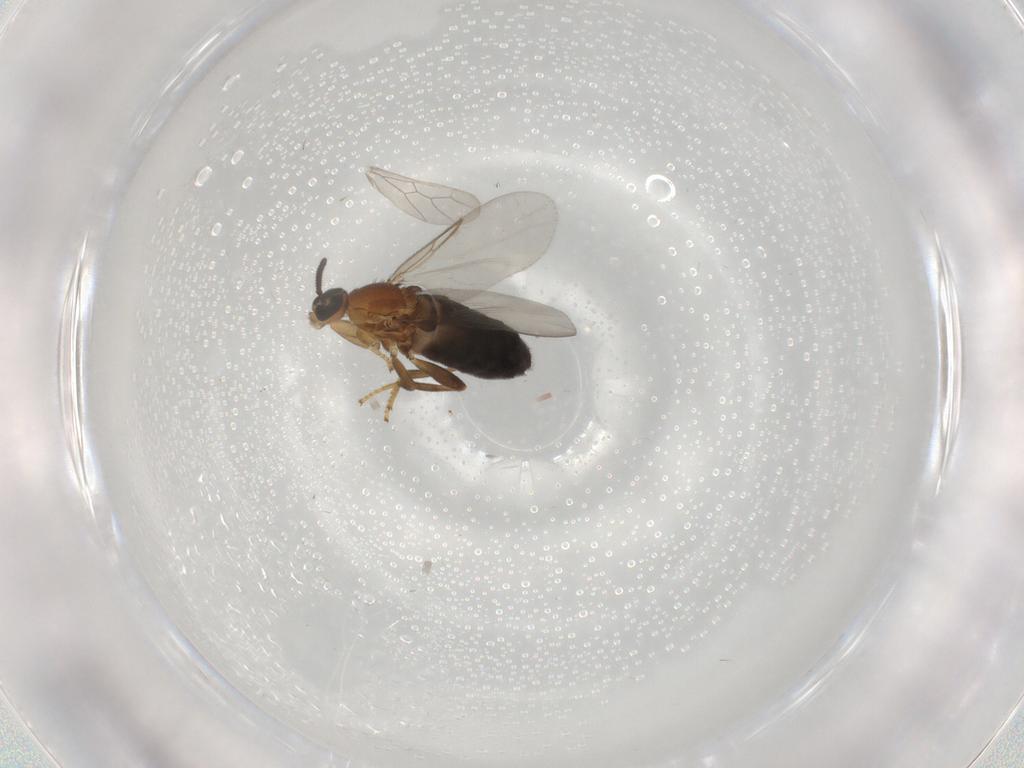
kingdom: Animalia
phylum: Arthropoda
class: Insecta
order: Diptera
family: Scatopsidae
